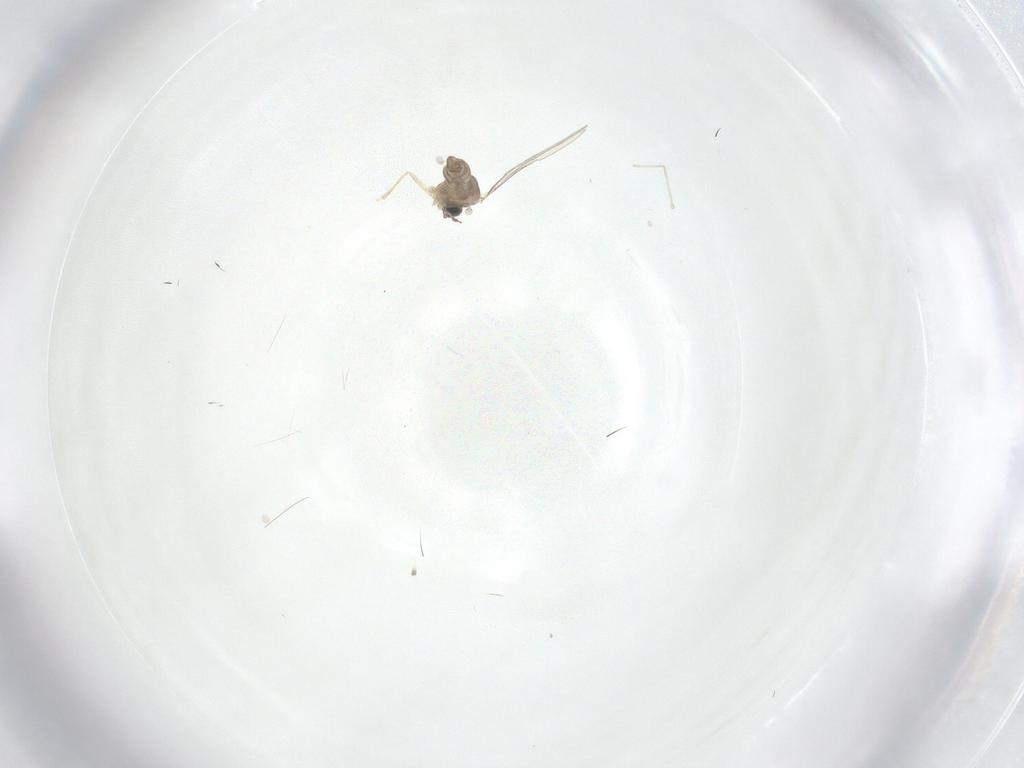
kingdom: Animalia
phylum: Arthropoda
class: Insecta
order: Diptera
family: Cecidomyiidae
